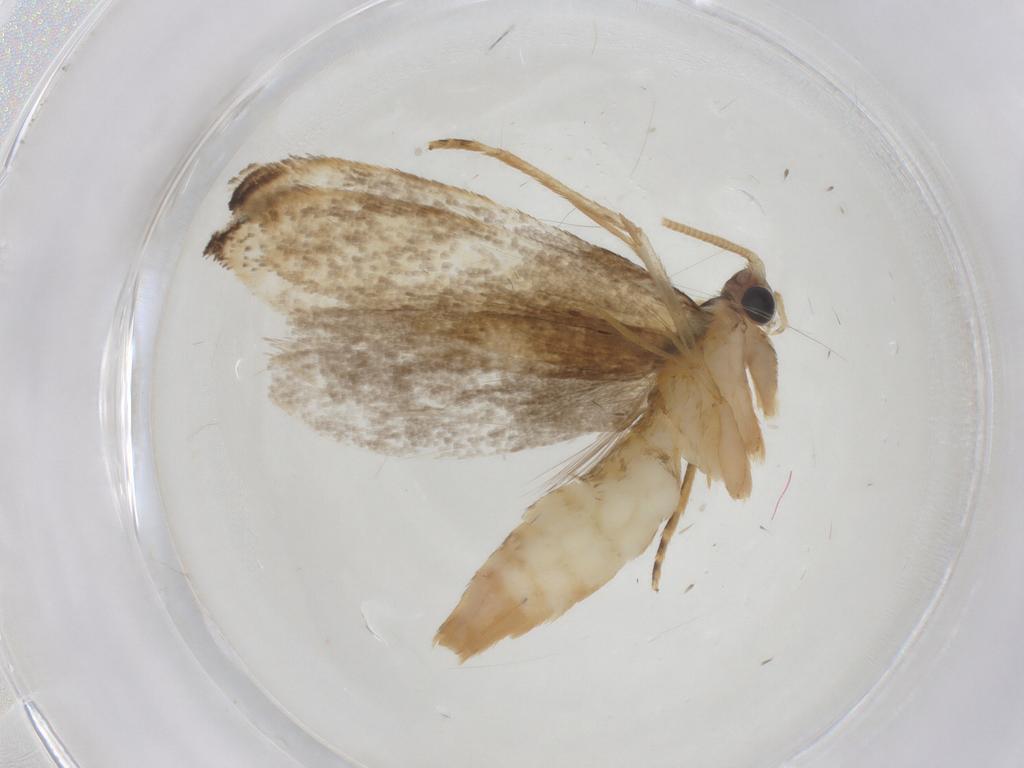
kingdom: Animalia
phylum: Arthropoda
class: Insecta
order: Lepidoptera
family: Tineidae
